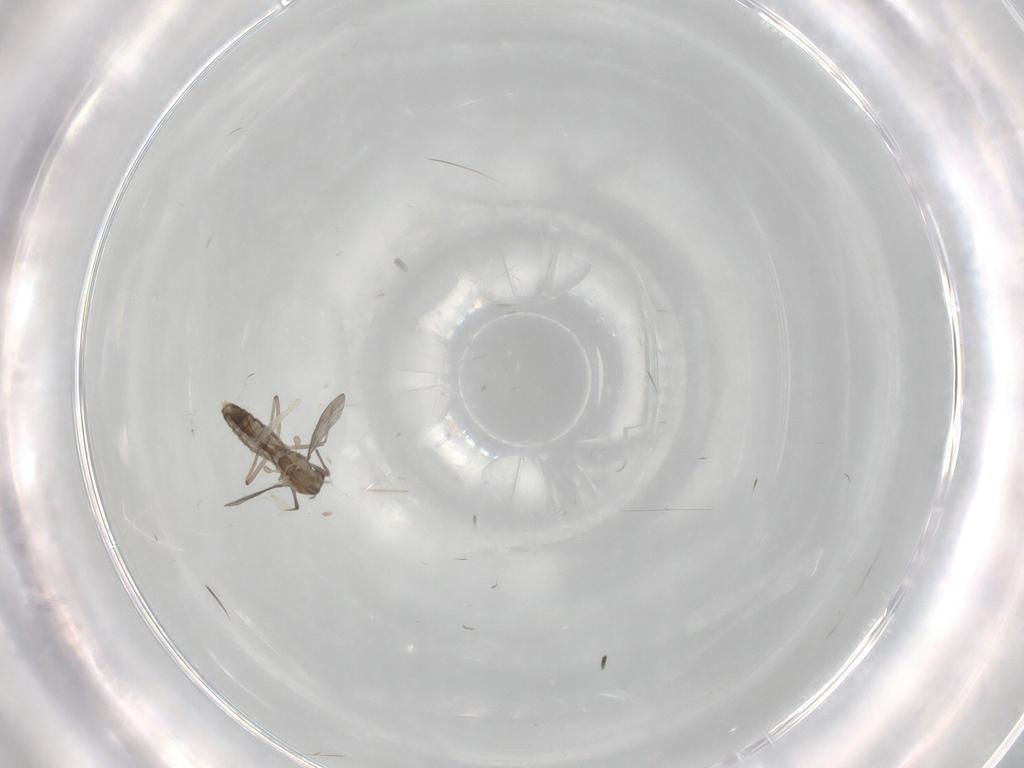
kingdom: Animalia
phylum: Arthropoda
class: Insecta
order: Diptera
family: Chironomidae
